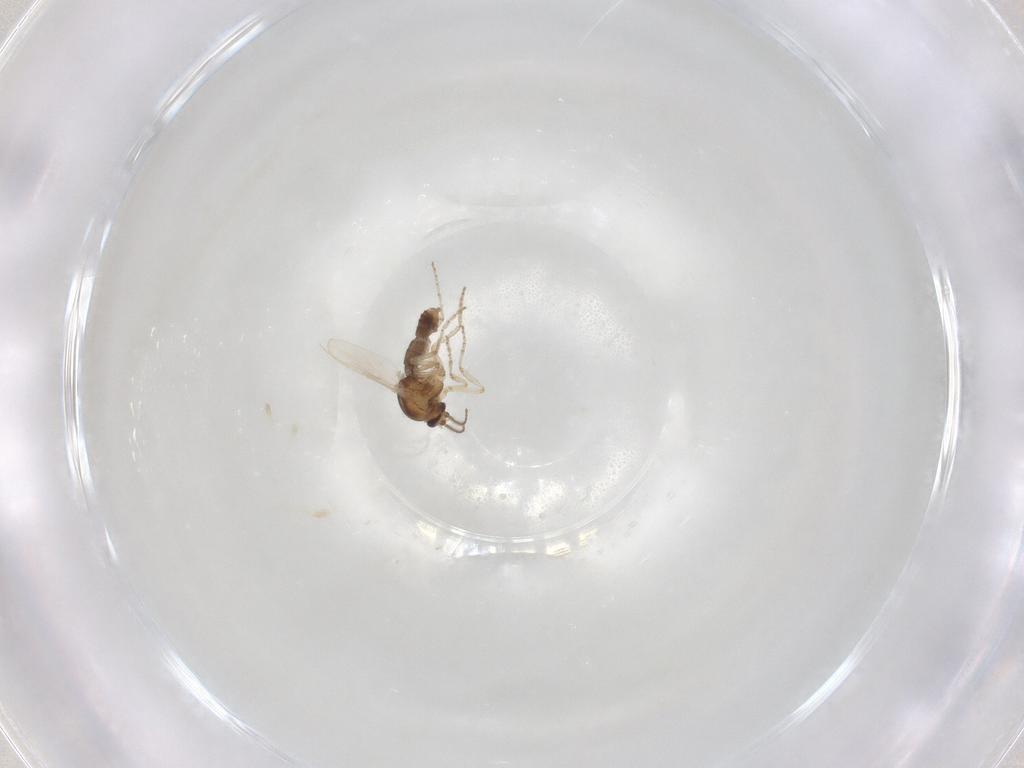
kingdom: Animalia
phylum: Arthropoda
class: Insecta
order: Diptera
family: Ceratopogonidae
